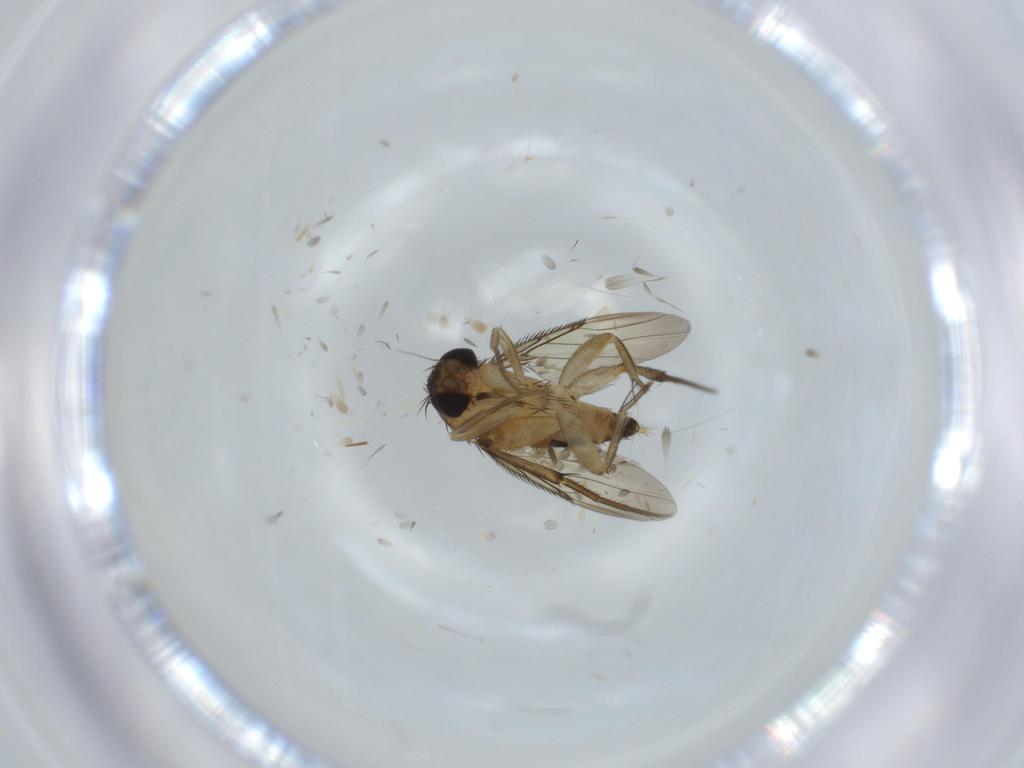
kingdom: Animalia
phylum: Arthropoda
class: Insecta
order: Diptera
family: Phoridae
